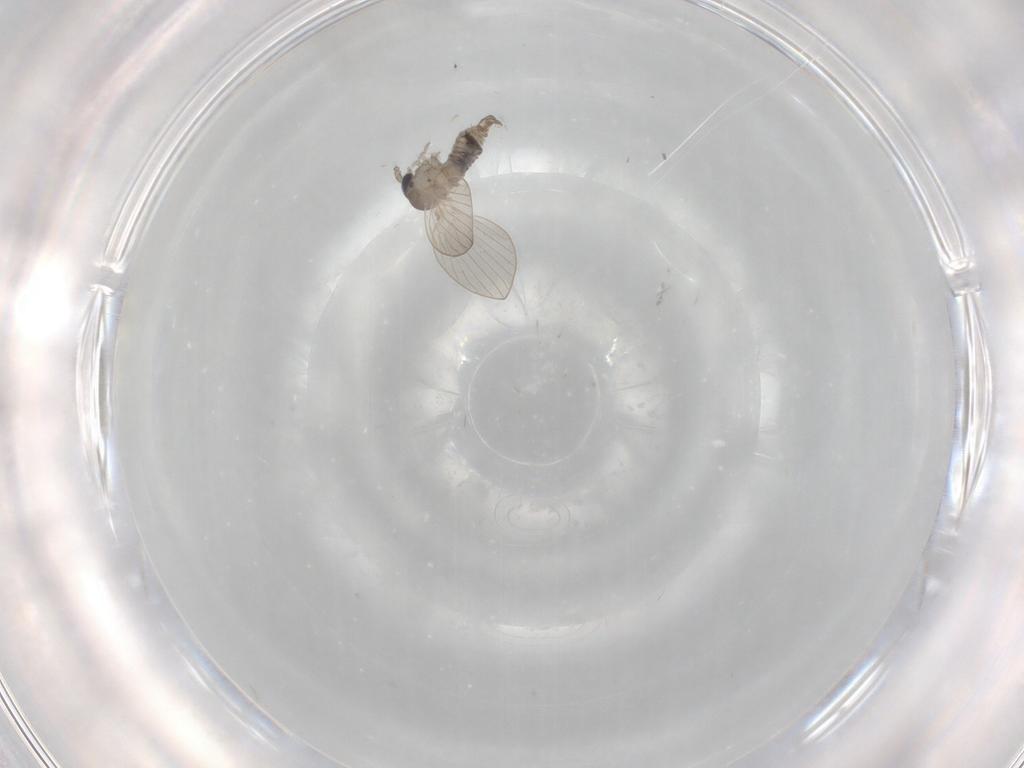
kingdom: Animalia
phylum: Arthropoda
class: Insecta
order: Diptera
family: Psychodidae
